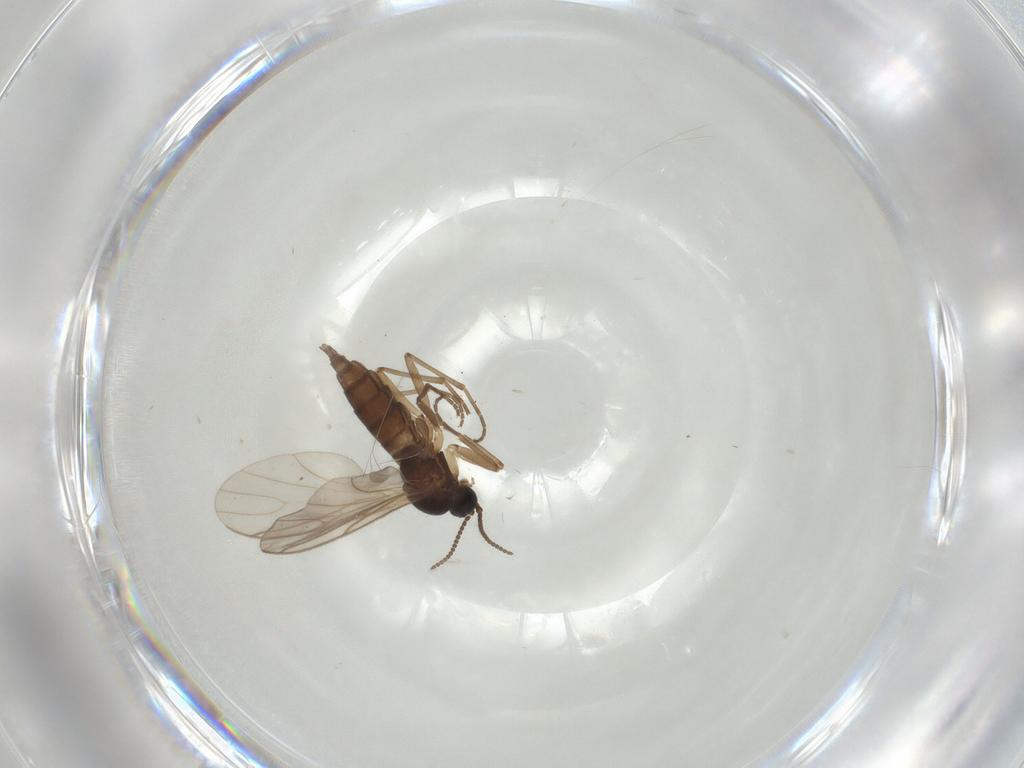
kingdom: Animalia
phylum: Arthropoda
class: Insecta
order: Diptera
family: Sciaridae
